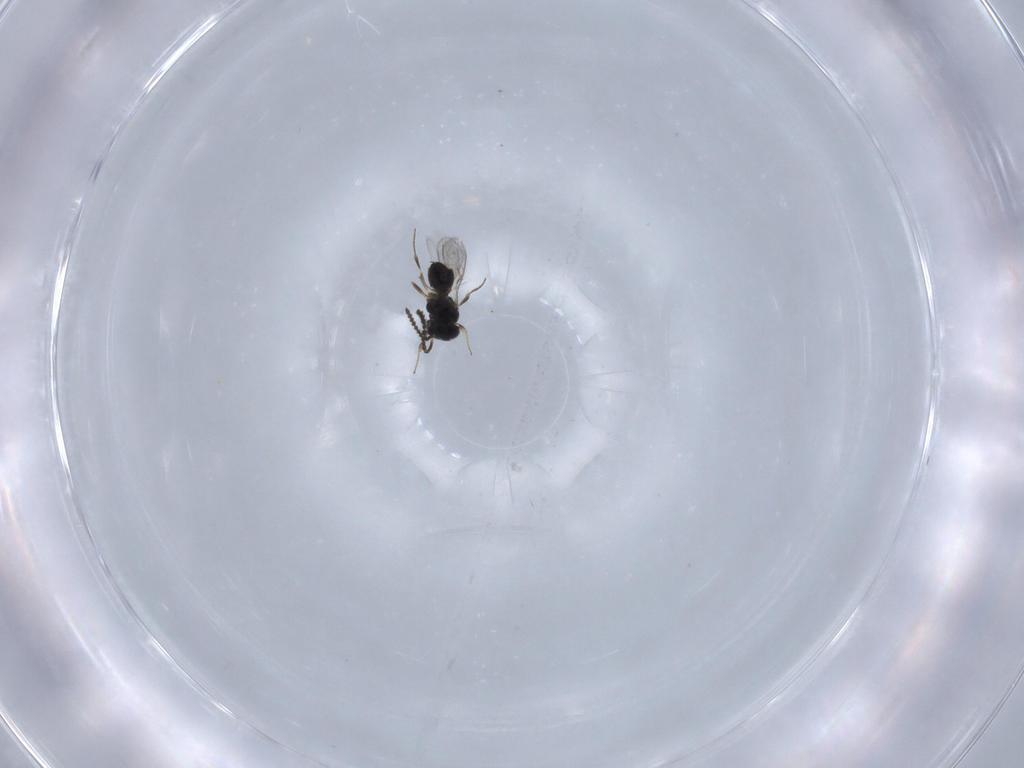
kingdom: Animalia
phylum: Arthropoda
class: Insecta
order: Hymenoptera
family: Scelionidae
